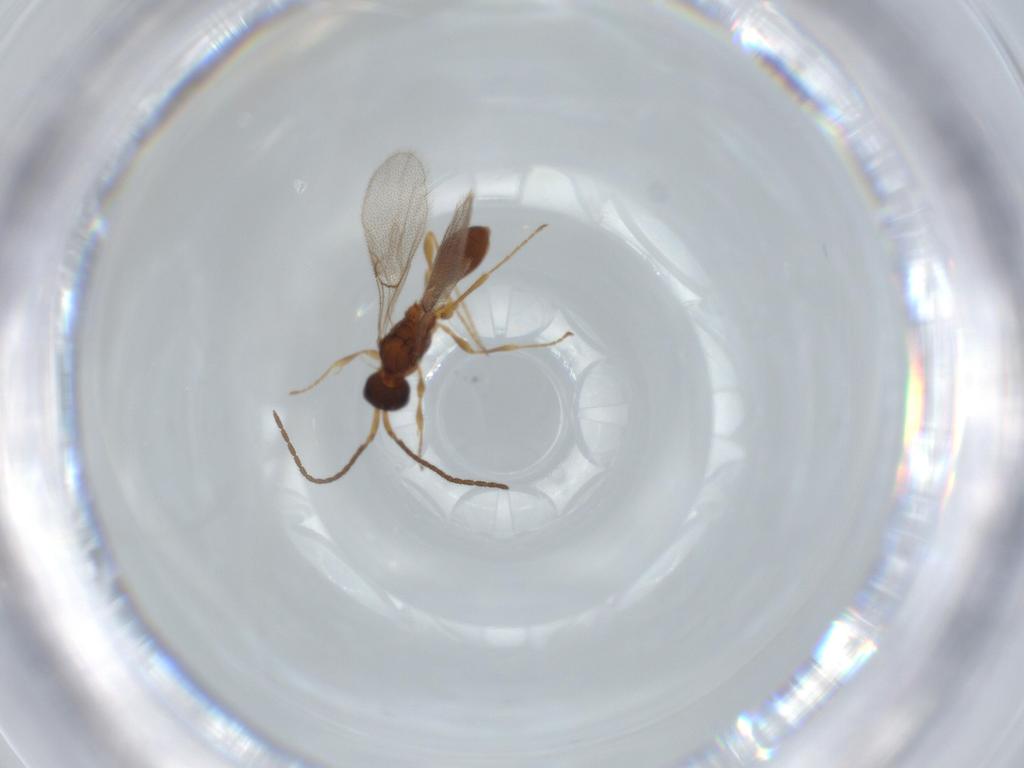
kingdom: Animalia
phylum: Arthropoda
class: Insecta
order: Hymenoptera
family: Diapriidae
